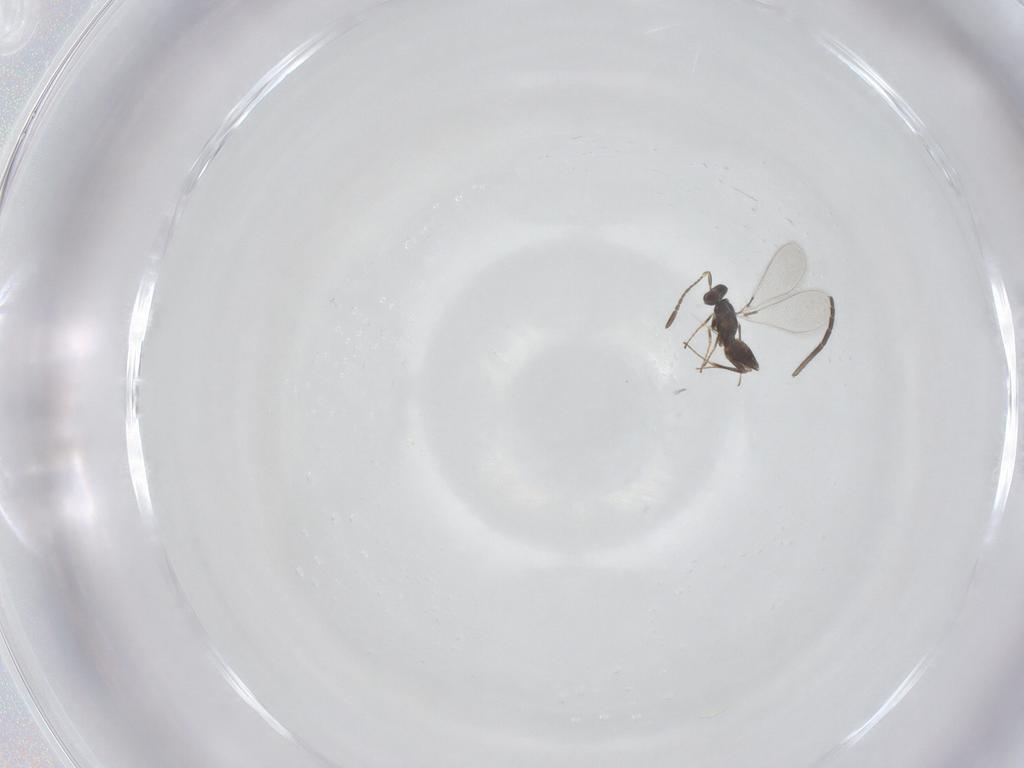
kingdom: Animalia
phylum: Arthropoda
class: Insecta
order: Hymenoptera
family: Mymaridae
